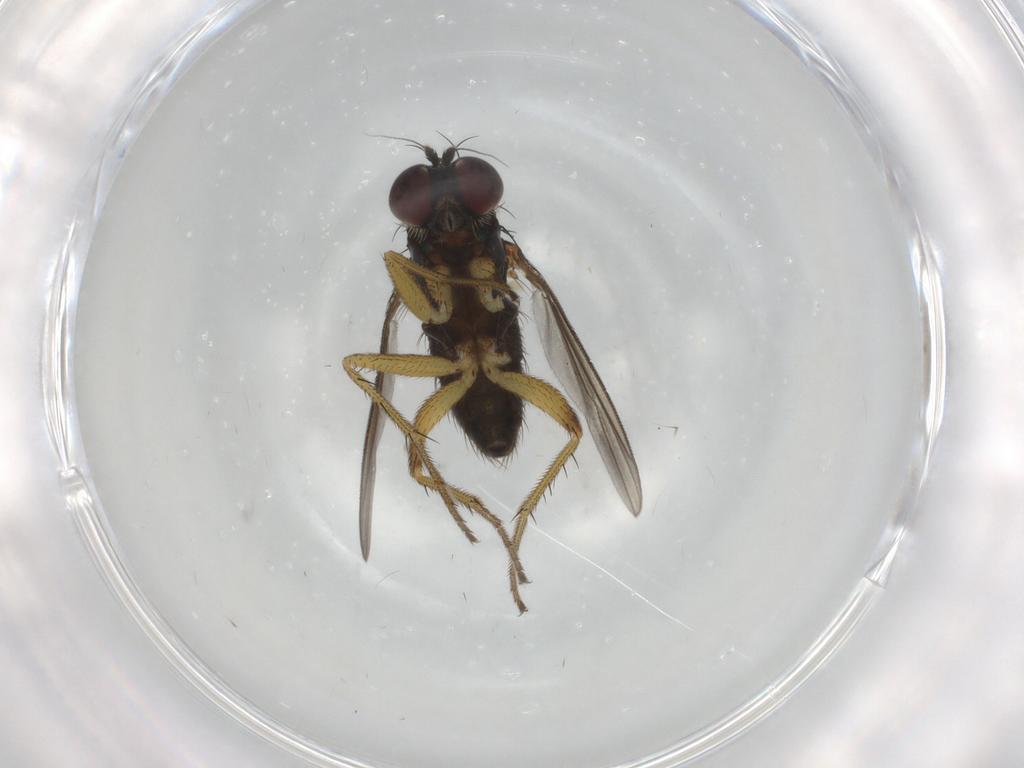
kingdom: Animalia
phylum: Arthropoda
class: Insecta
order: Diptera
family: Dolichopodidae
